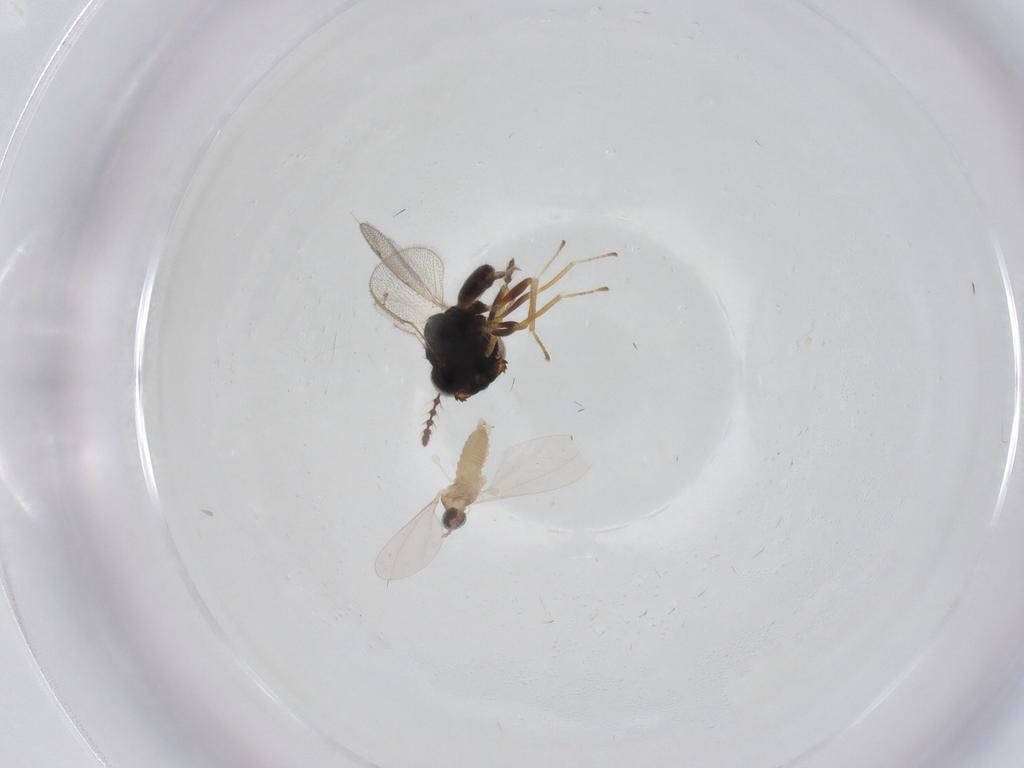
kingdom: Animalia
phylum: Arthropoda
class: Insecta
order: Diptera
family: Cecidomyiidae
